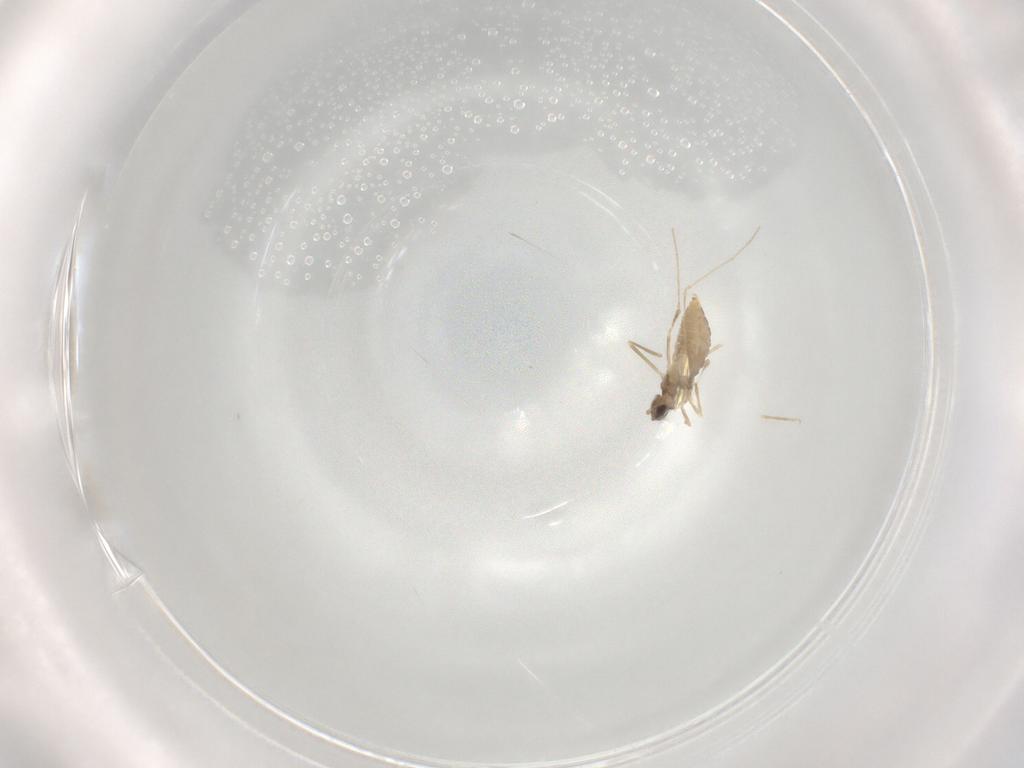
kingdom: Animalia
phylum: Arthropoda
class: Insecta
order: Diptera
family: Cecidomyiidae
